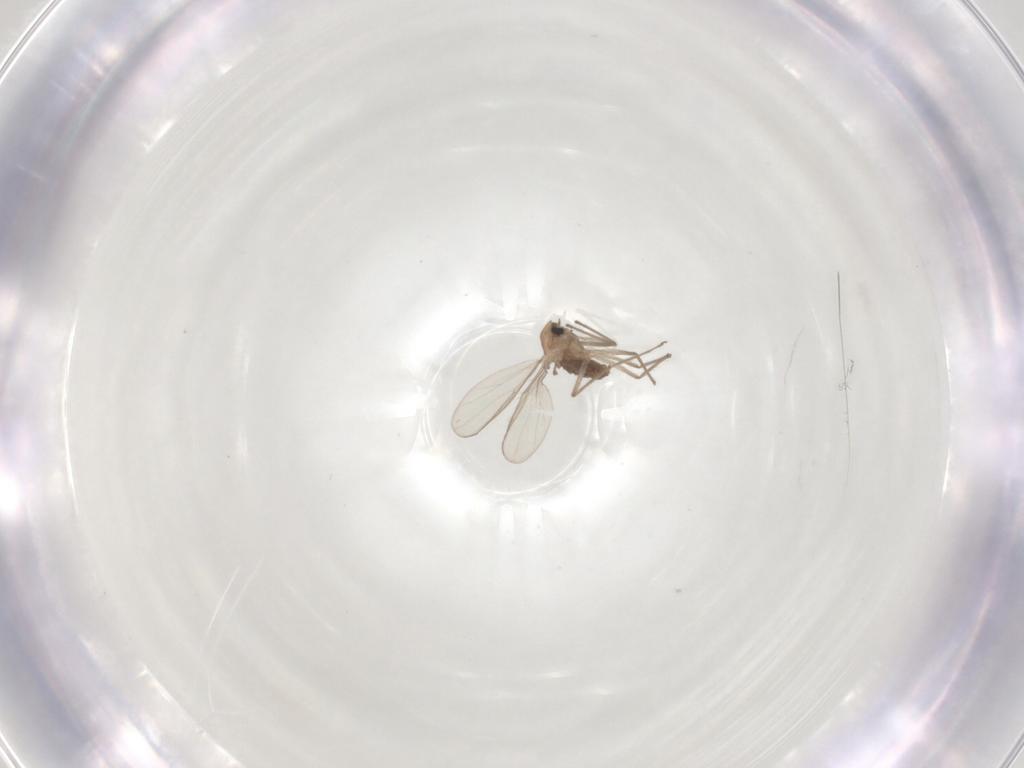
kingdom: Animalia
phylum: Arthropoda
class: Insecta
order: Diptera
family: Chironomidae
